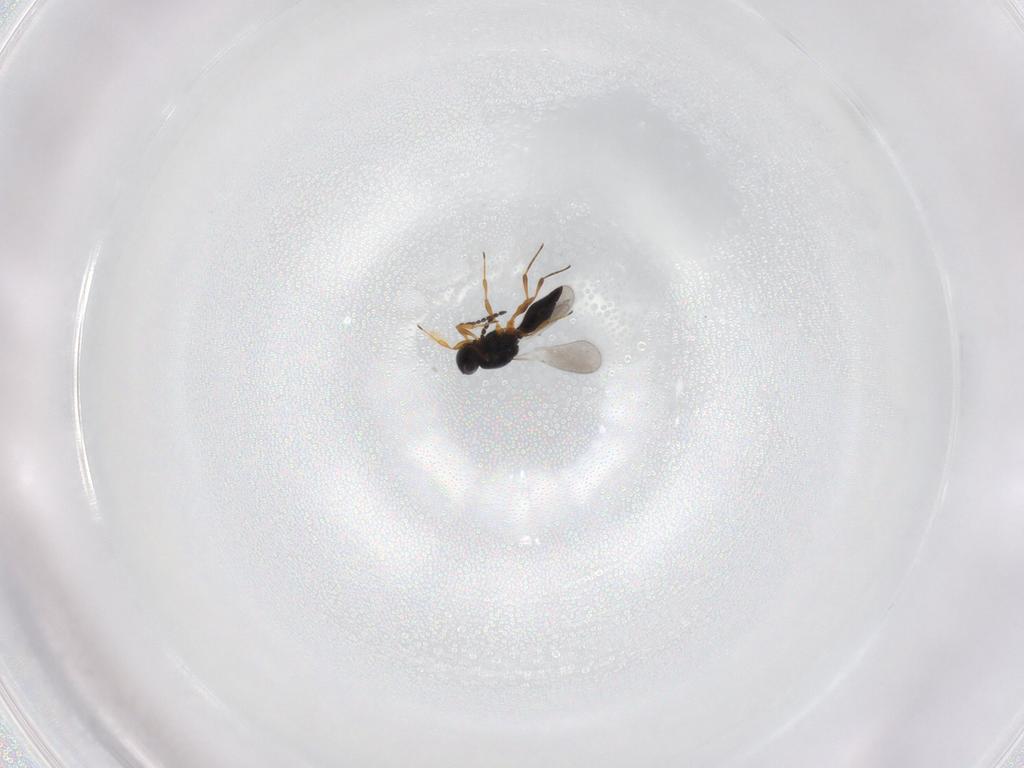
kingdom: Animalia
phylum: Arthropoda
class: Insecta
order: Hymenoptera
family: Platygastridae
